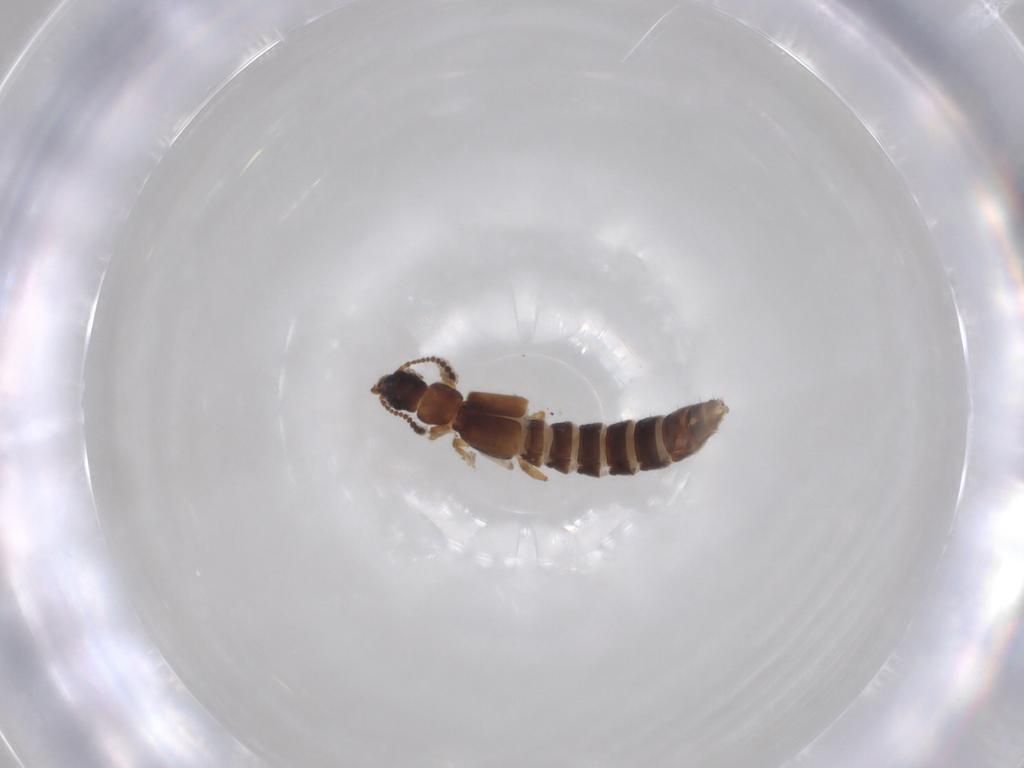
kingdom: Animalia
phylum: Arthropoda
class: Insecta
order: Coleoptera
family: Staphylinidae
